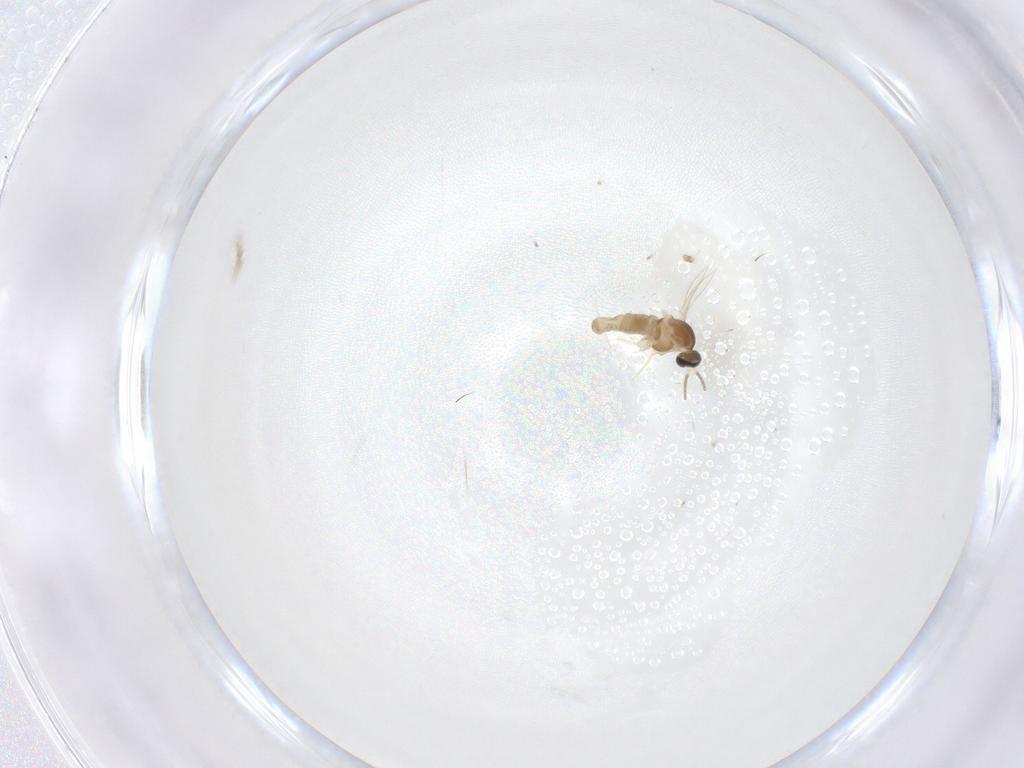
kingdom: Animalia
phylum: Arthropoda
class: Insecta
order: Diptera
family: Cecidomyiidae
